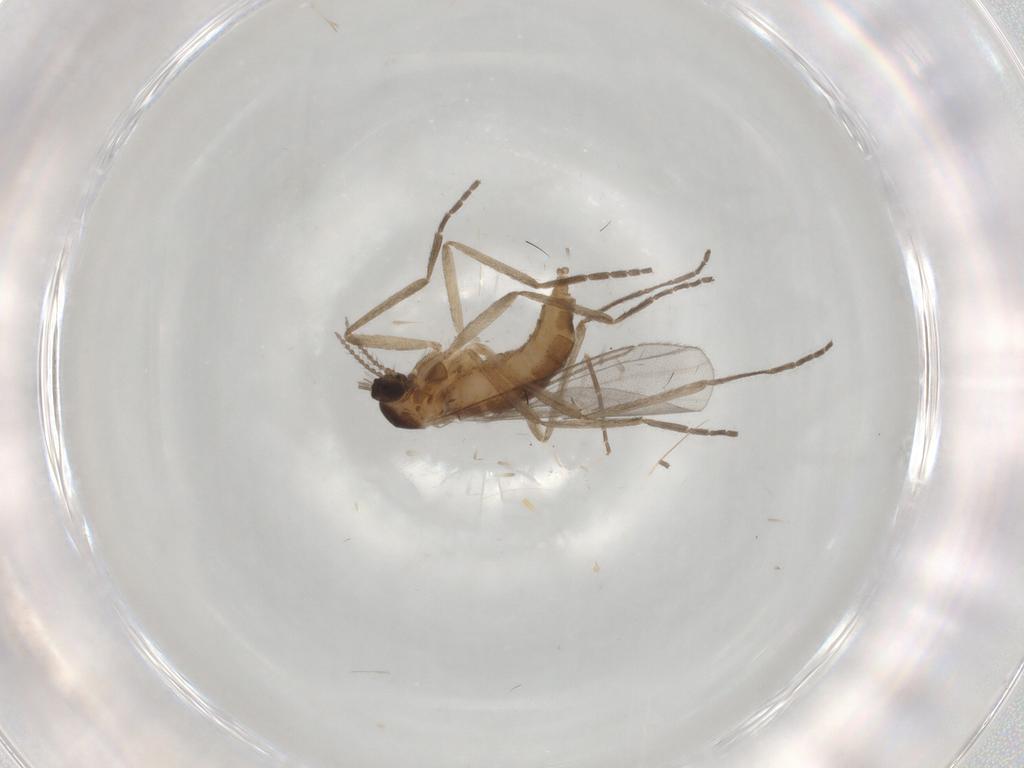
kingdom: Animalia
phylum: Arthropoda
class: Insecta
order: Diptera
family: Cecidomyiidae
